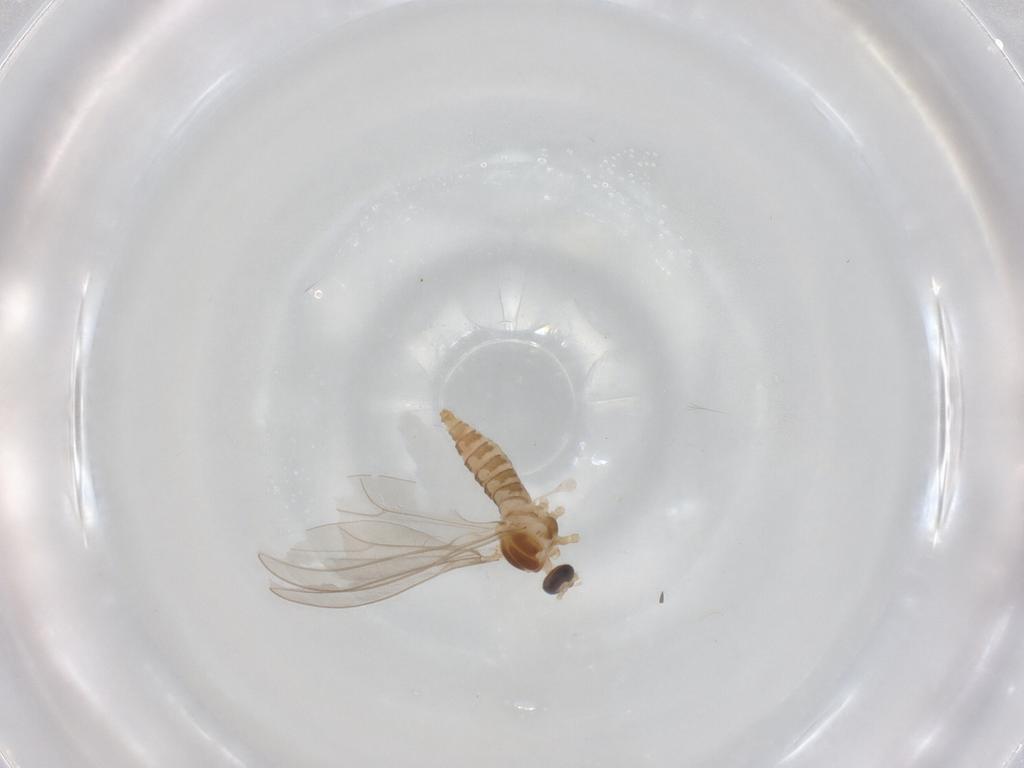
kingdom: Animalia
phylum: Arthropoda
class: Insecta
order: Diptera
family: Cecidomyiidae
